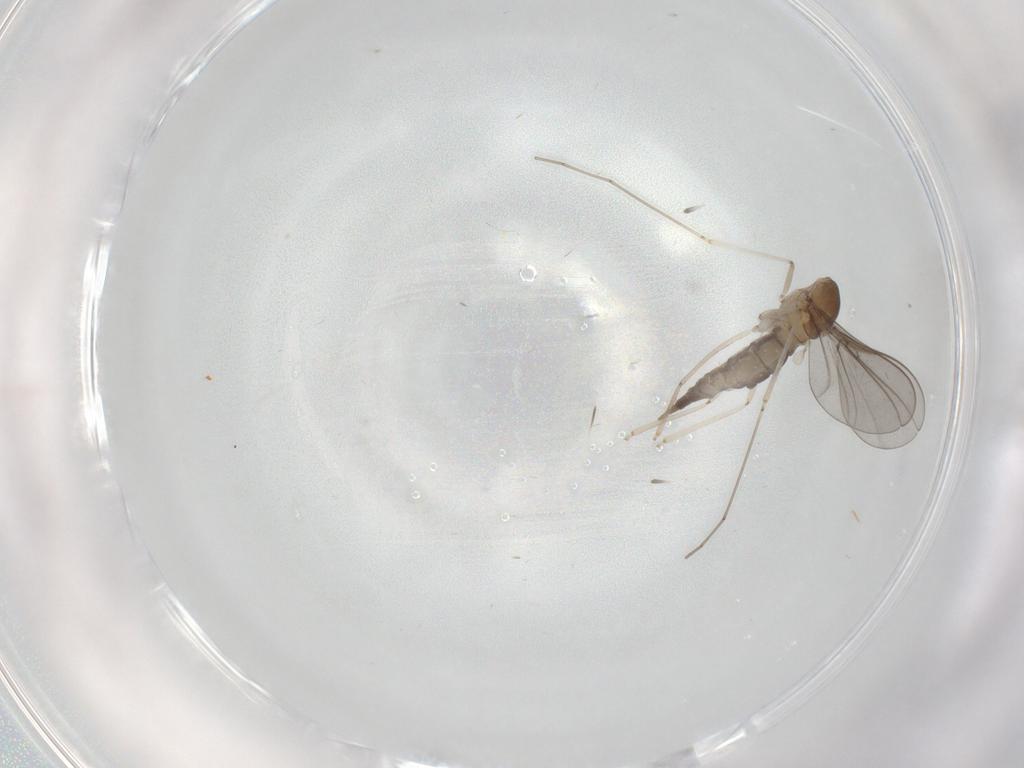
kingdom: Animalia
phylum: Arthropoda
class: Insecta
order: Diptera
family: Cecidomyiidae
